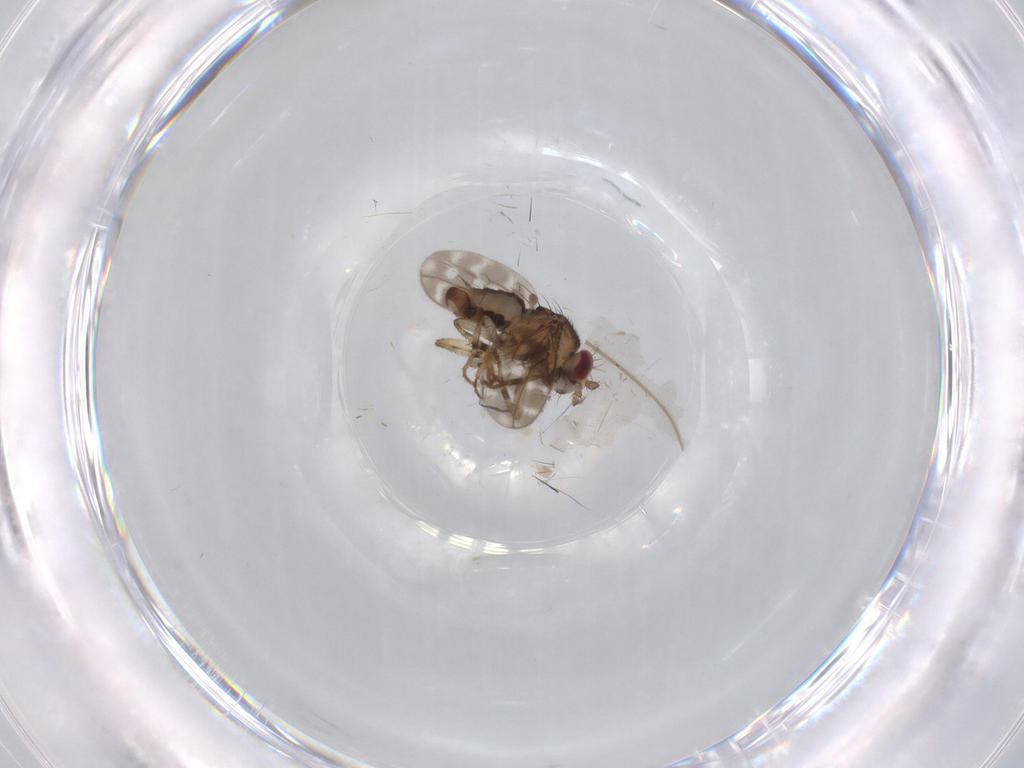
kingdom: Animalia
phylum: Arthropoda
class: Insecta
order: Diptera
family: Sphaeroceridae
